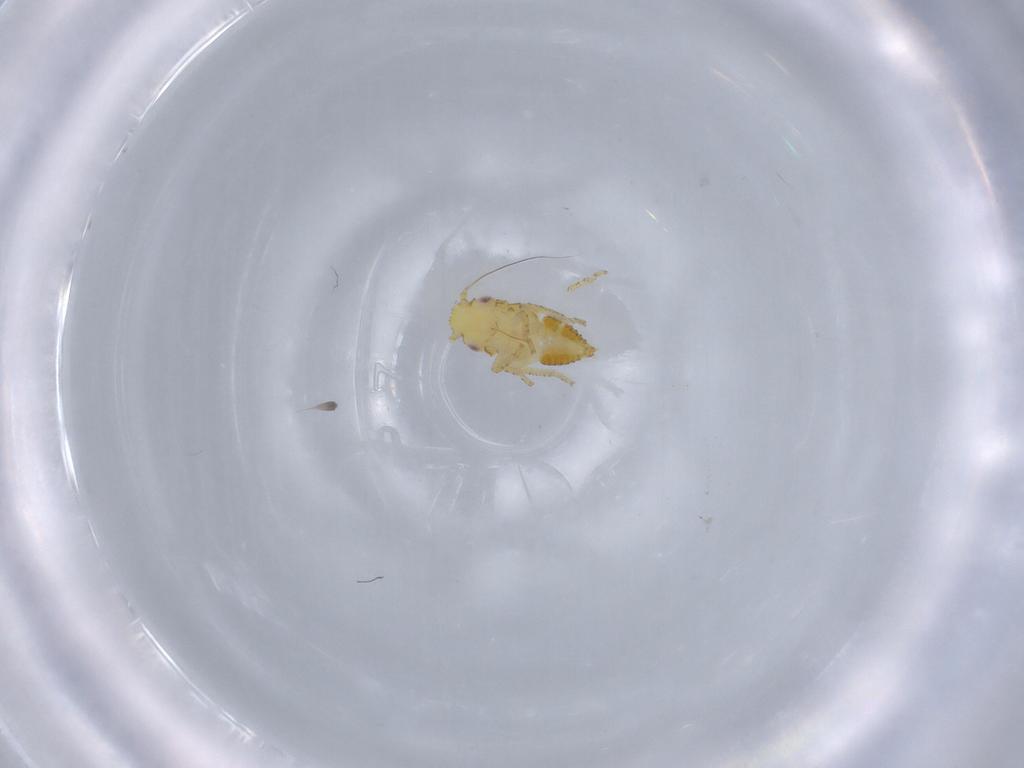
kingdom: Animalia
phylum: Arthropoda
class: Insecta
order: Hemiptera
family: Cicadellidae
